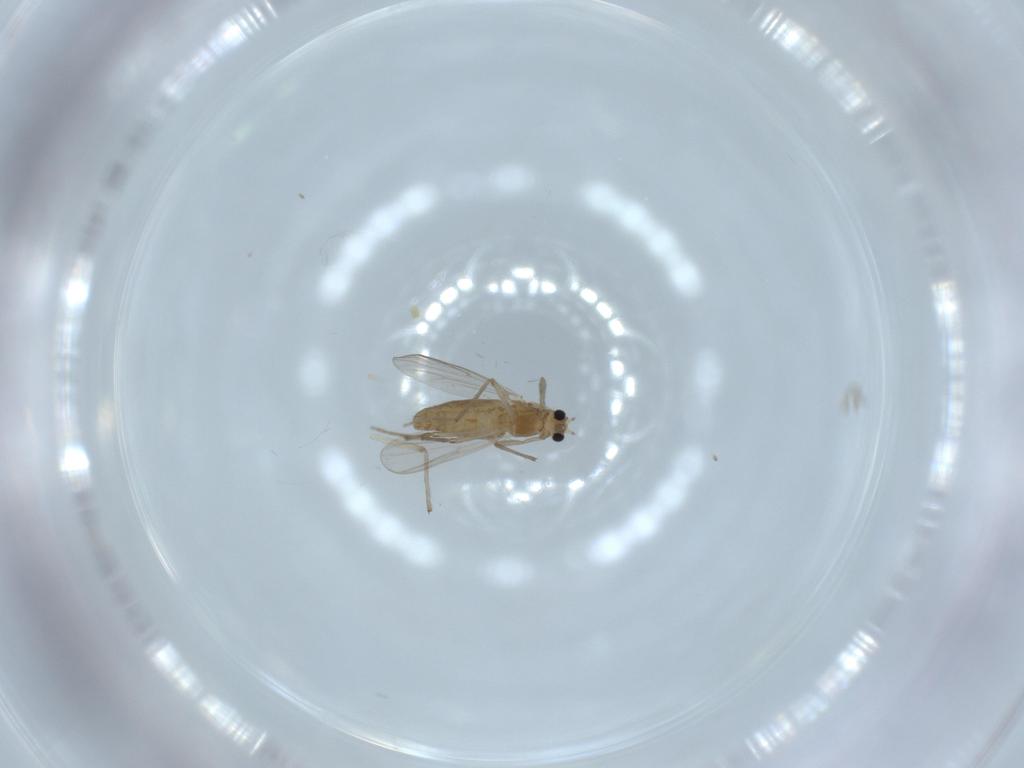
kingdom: Animalia
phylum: Arthropoda
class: Insecta
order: Diptera
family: Chironomidae
